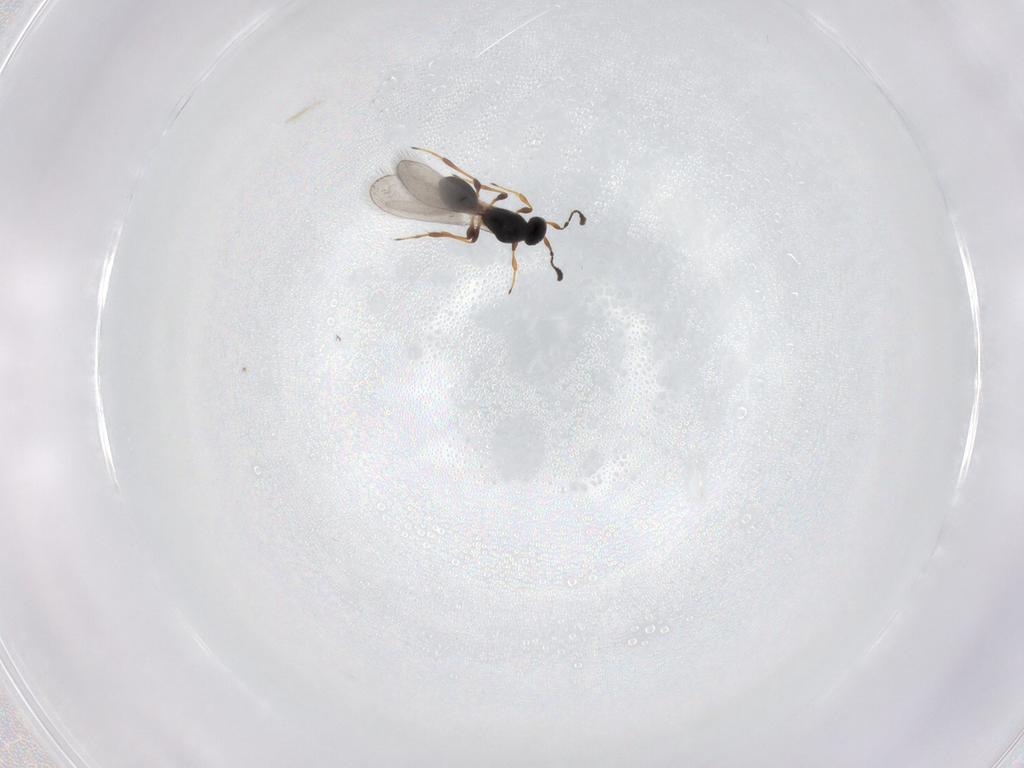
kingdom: Animalia
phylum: Arthropoda
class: Insecta
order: Hymenoptera
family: Platygastridae
